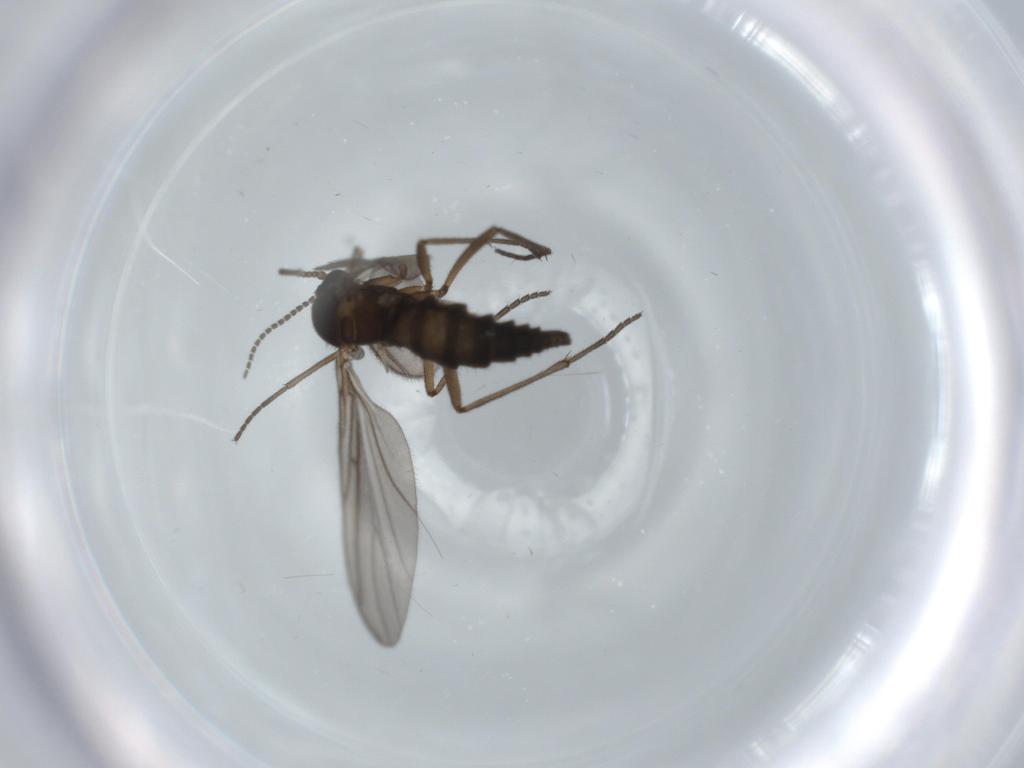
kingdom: Animalia
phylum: Arthropoda
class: Insecta
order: Diptera
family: Sciaridae
